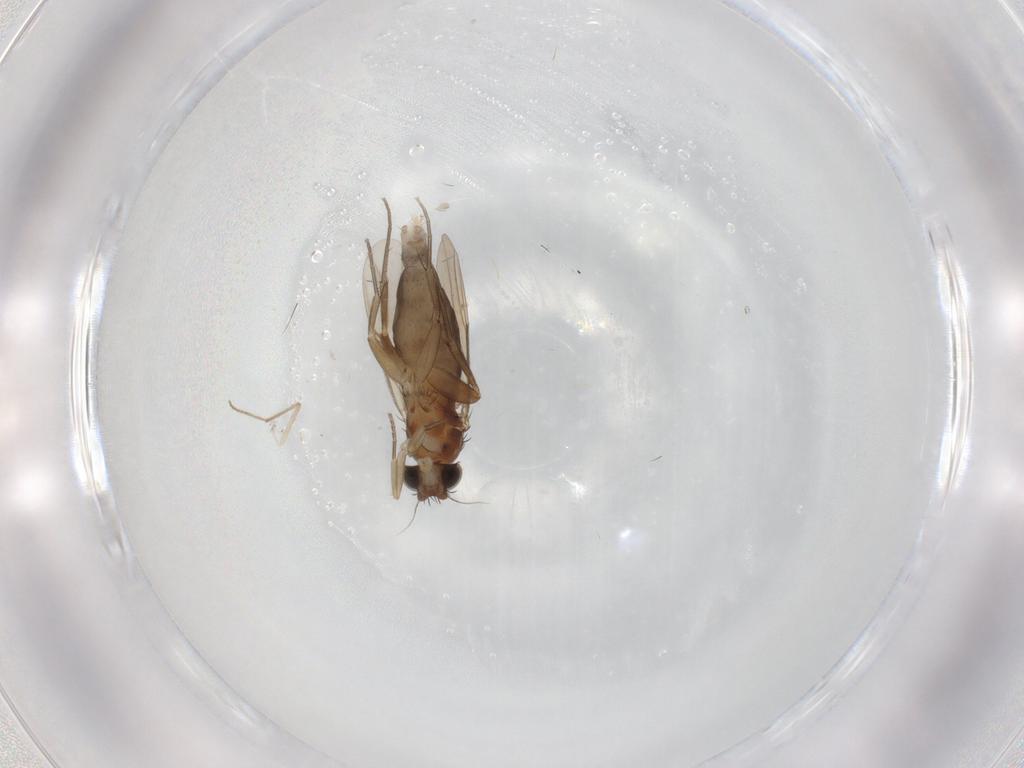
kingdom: Animalia
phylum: Arthropoda
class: Insecta
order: Diptera
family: Phoridae
